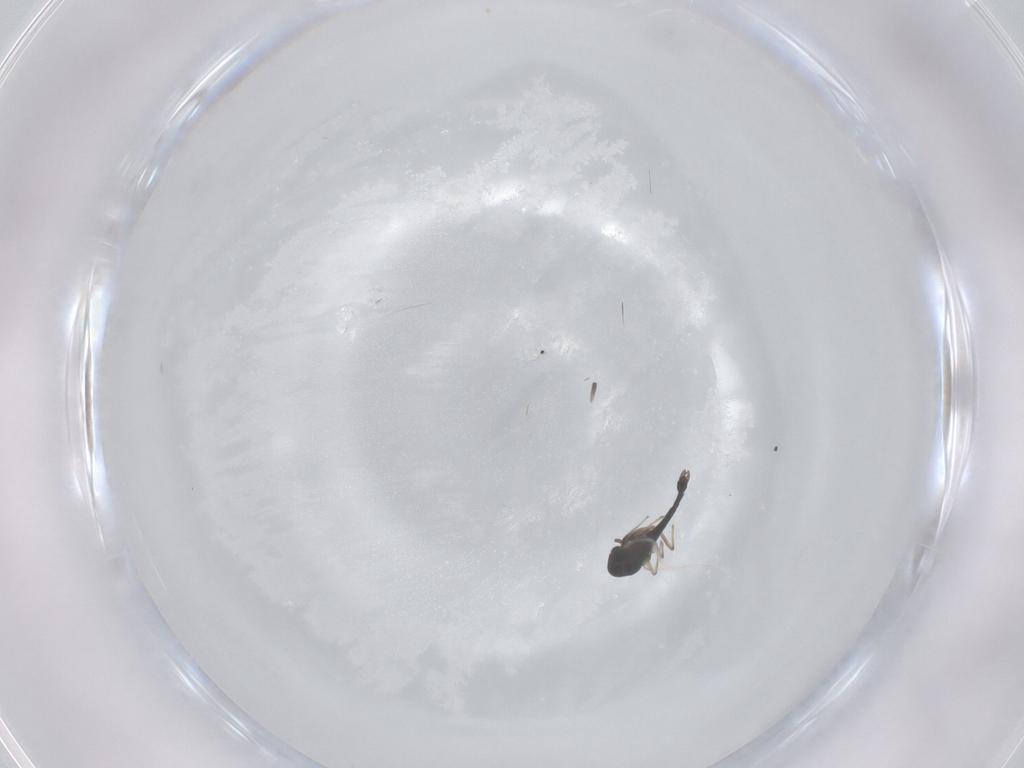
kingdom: Animalia
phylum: Arthropoda
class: Insecta
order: Diptera
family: Chironomidae
